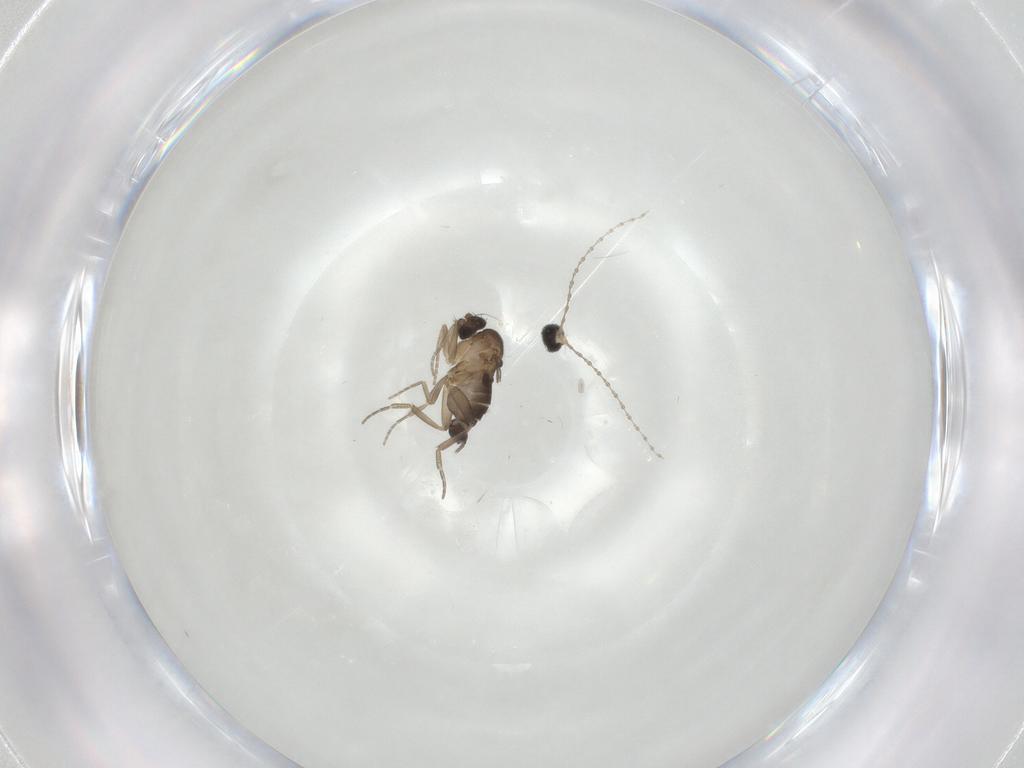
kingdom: Animalia
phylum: Arthropoda
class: Insecta
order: Diptera
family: Phoridae
